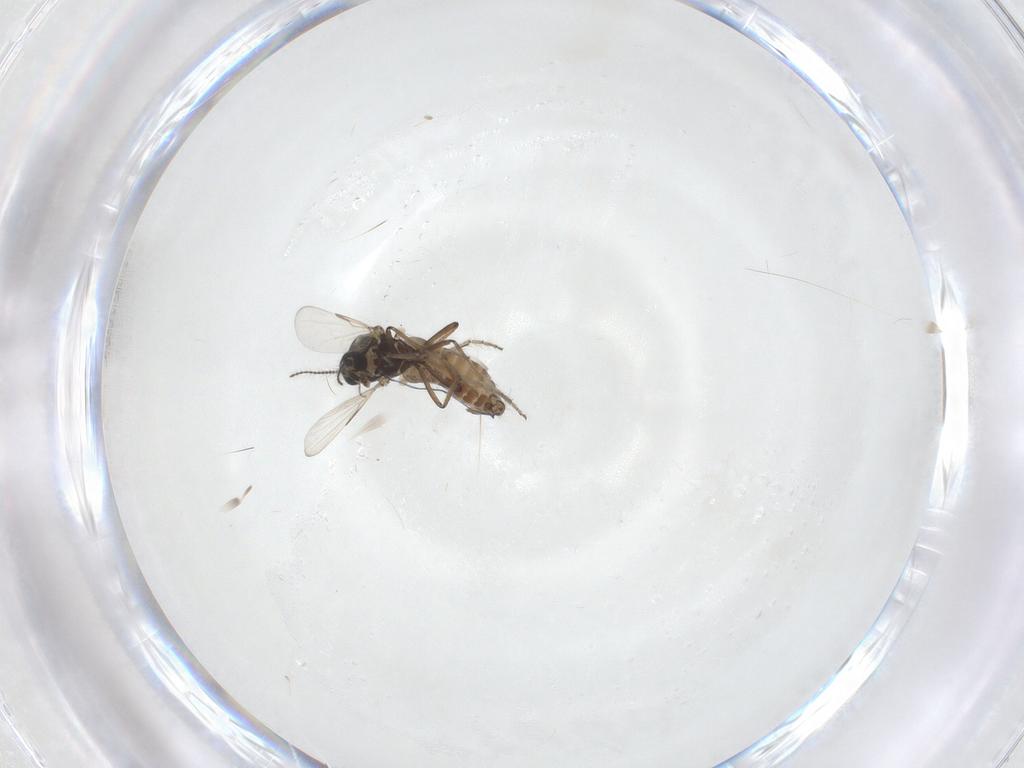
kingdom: Animalia
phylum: Arthropoda
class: Insecta
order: Diptera
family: Ceratopogonidae
